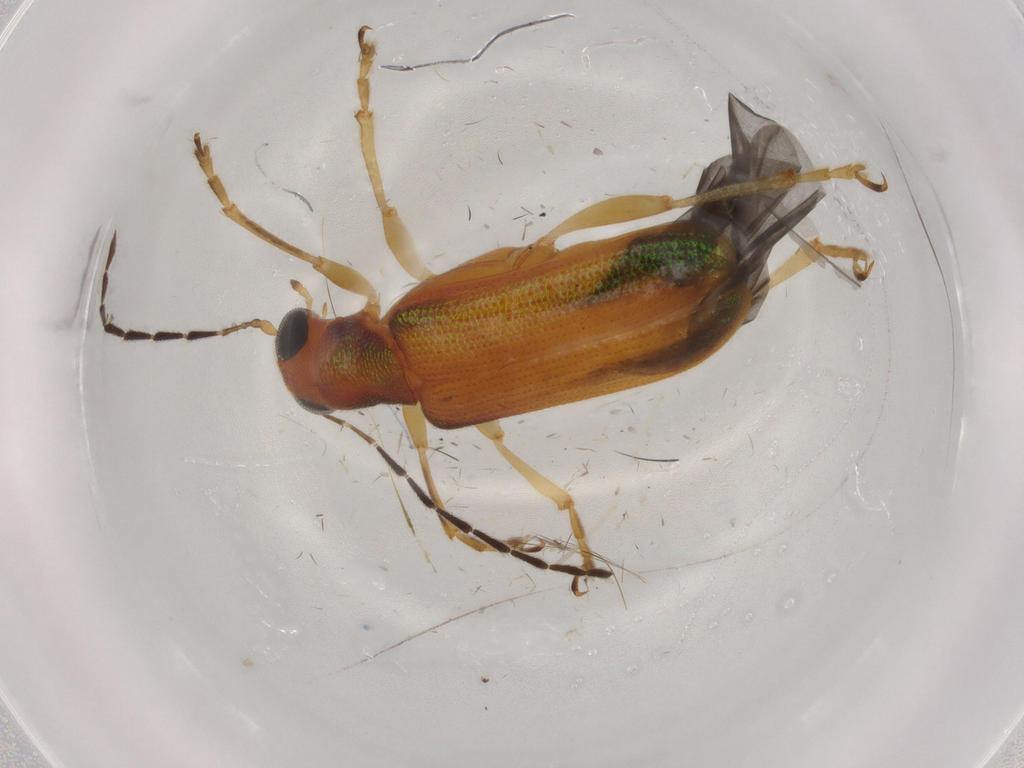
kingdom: Animalia
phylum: Arthropoda
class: Insecta
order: Coleoptera
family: Chrysomelidae
